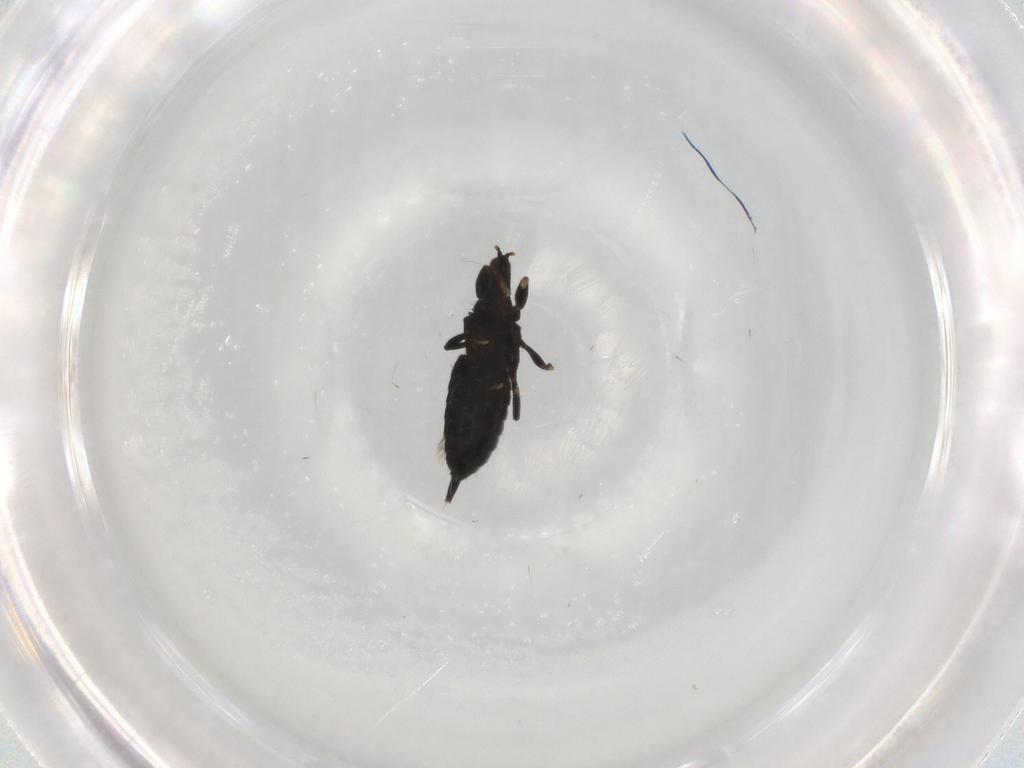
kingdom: Animalia
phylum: Arthropoda
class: Insecta
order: Thysanoptera
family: Phlaeothripidae
